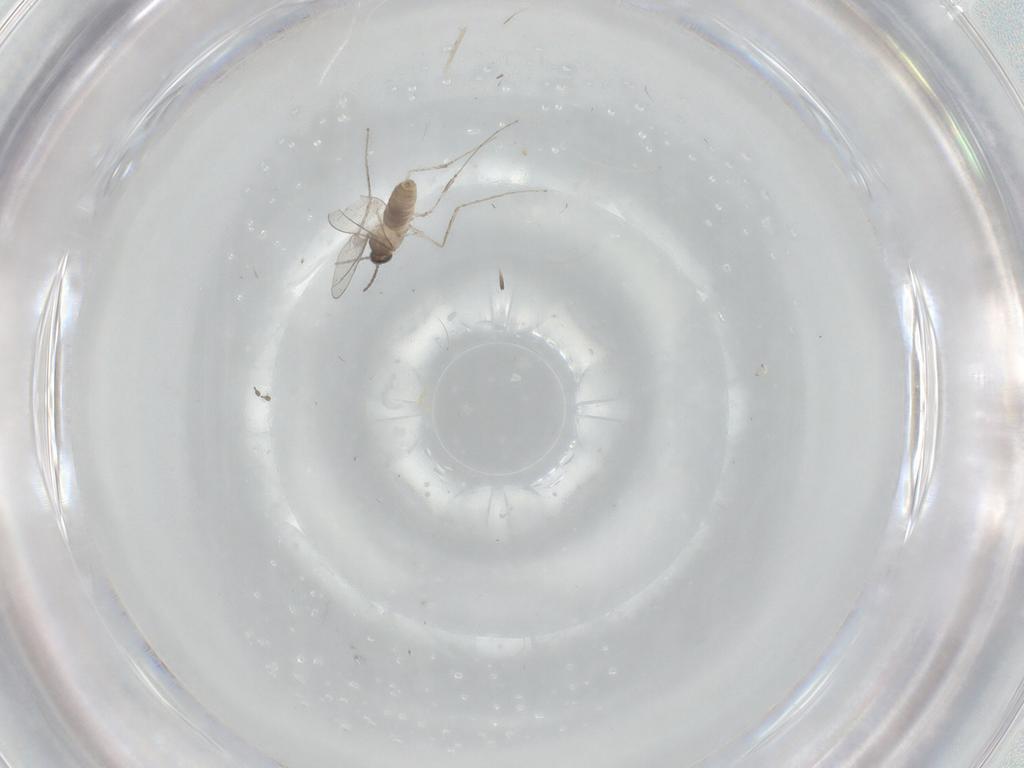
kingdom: Animalia
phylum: Arthropoda
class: Insecta
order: Diptera
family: Cecidomyiidae
